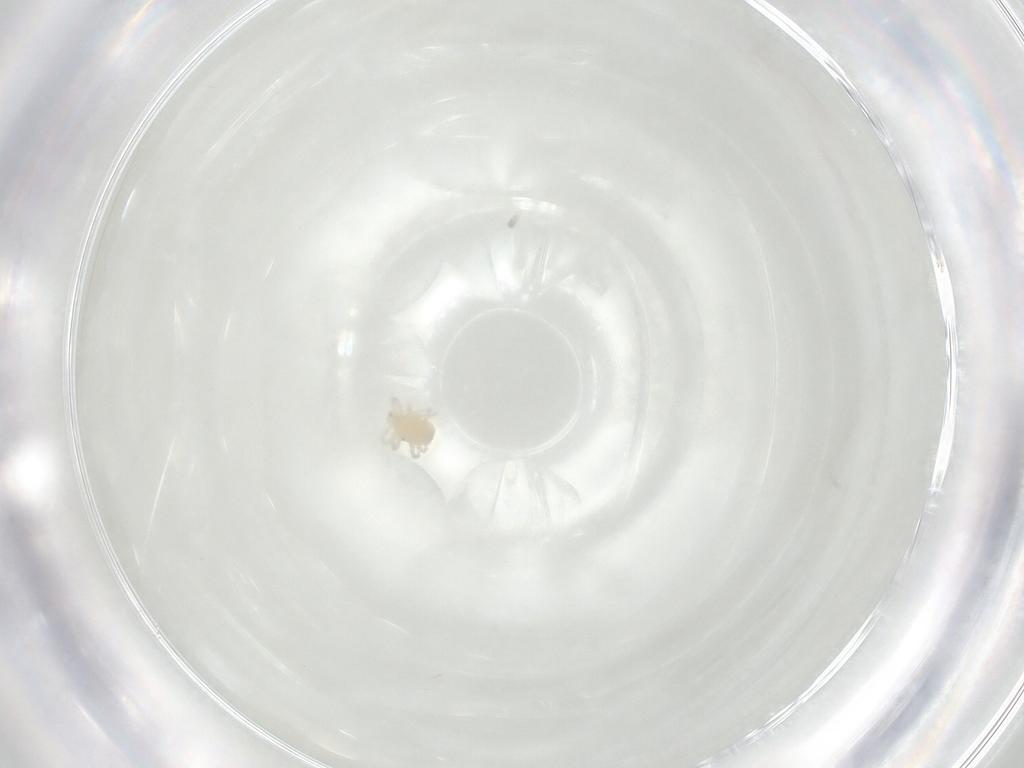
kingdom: Animalia
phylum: Arthropoda
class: Arachnida
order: Trombidiformes
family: Anystidae
